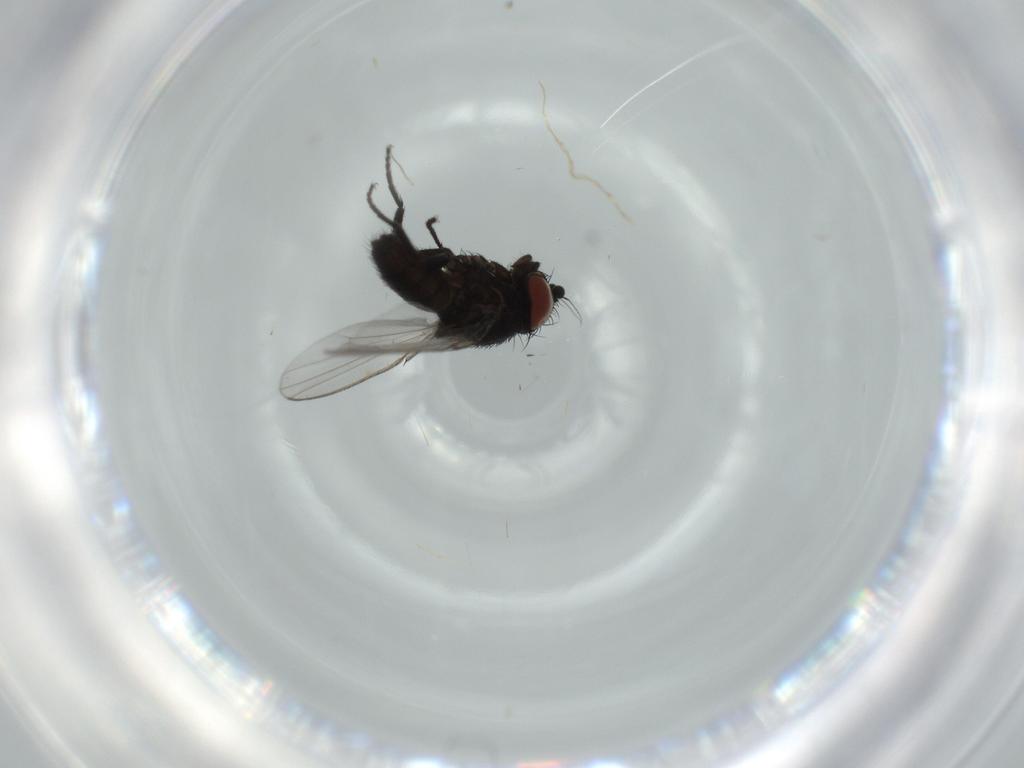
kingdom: Animalia
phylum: Arthropoda
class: Insecta
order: Diptera
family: Milichiidae
